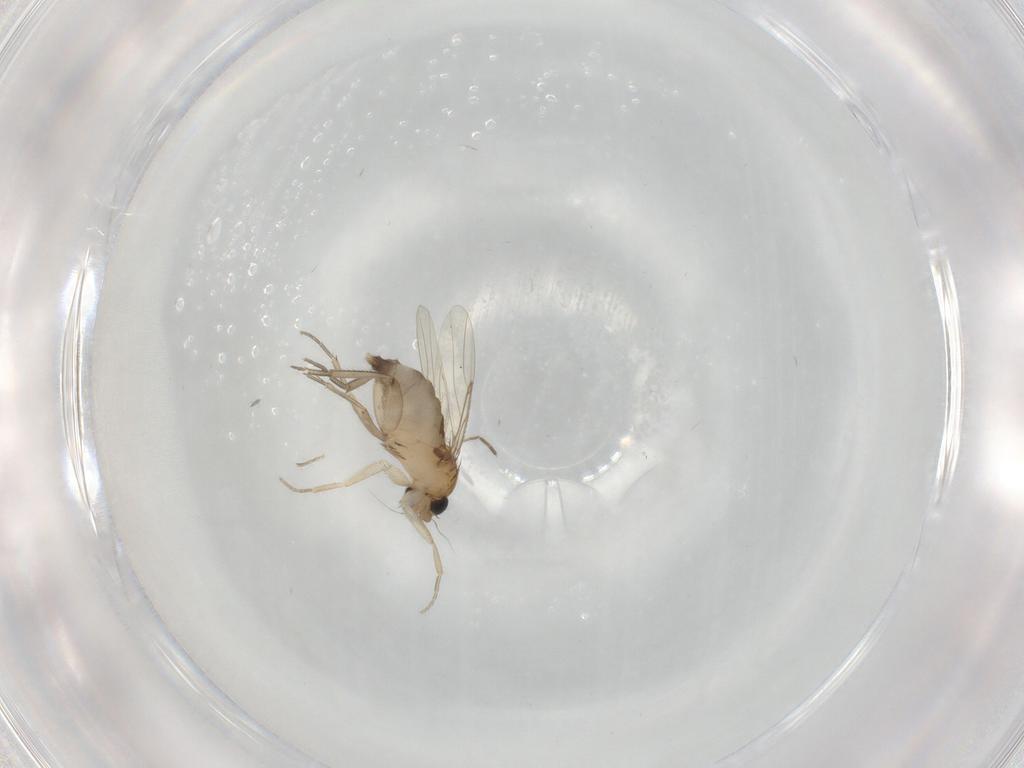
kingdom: Animalia
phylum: Arthropoda
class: Insecta
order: Diptera
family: Phoridae
